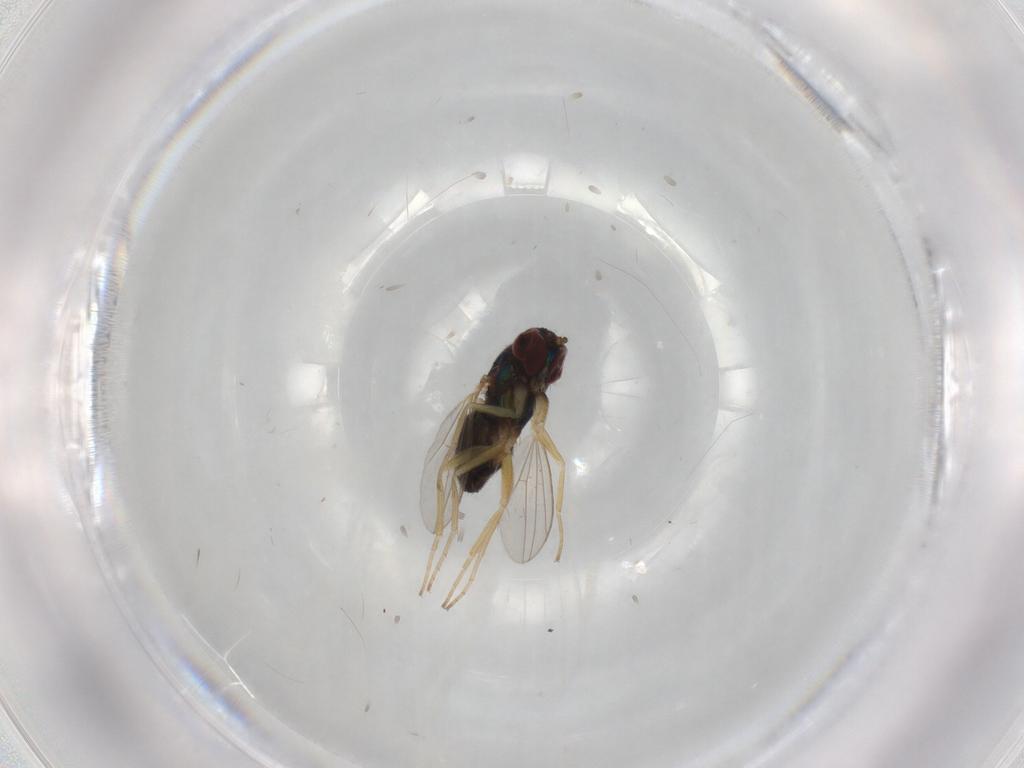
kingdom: Animalia
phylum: Arthropoda
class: Insecta
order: Diptera
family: Dolichopodidae
